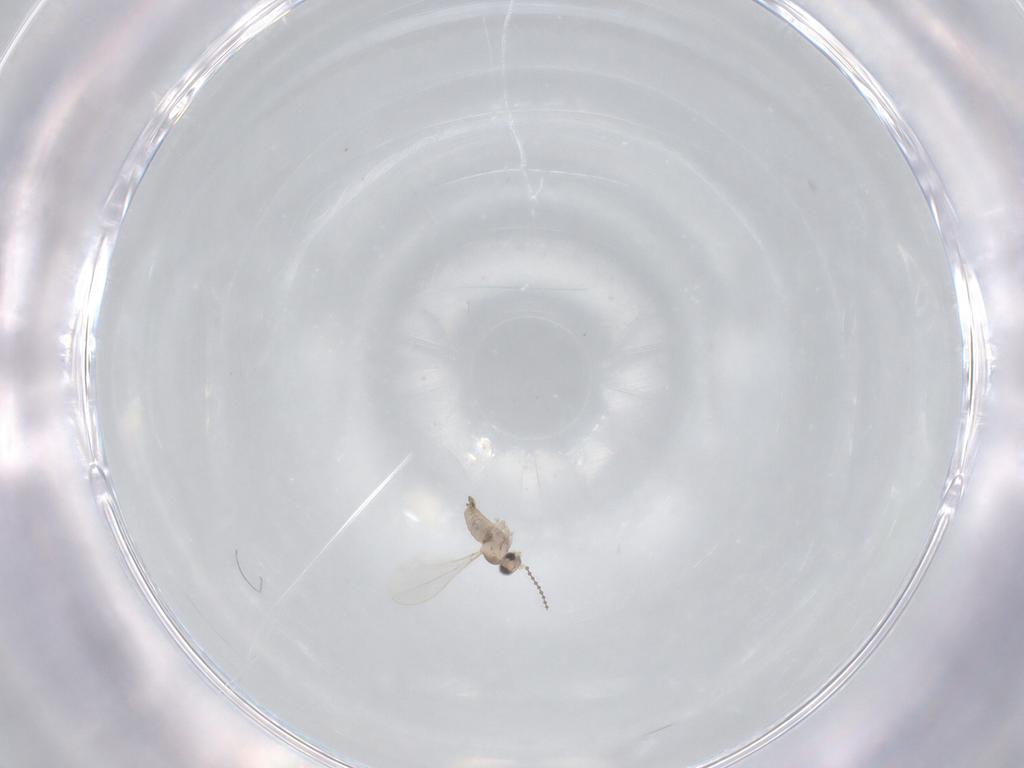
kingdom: Animalia
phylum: Arthropoda
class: Insecta
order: Diptera
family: Cecidomyiidae
